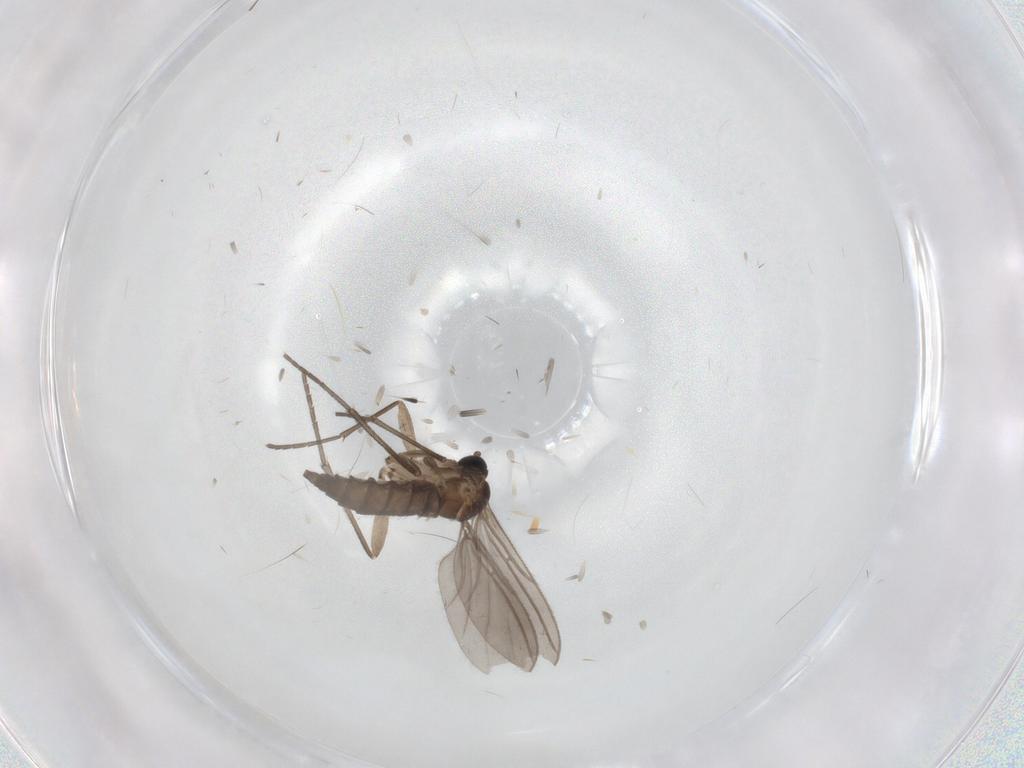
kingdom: Animalia
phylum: Arthropoda
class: Insecta
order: Diptera
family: Sciaridae
